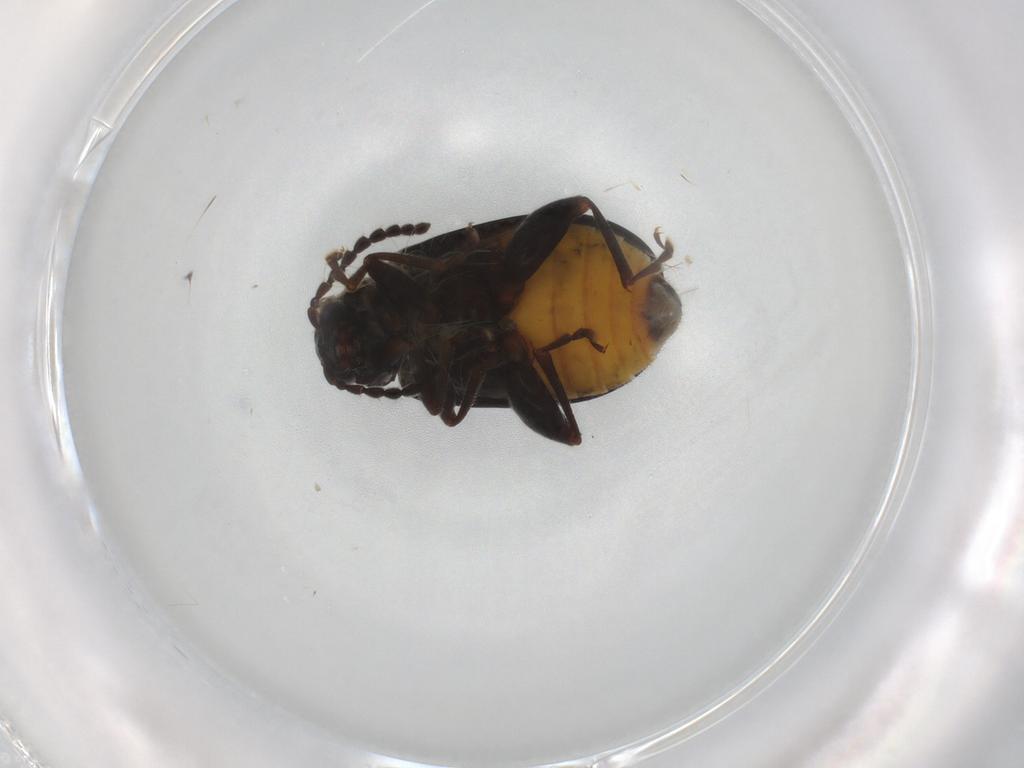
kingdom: Animalia
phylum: Arthropoda
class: Insecta
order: Coleoptera
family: Chrysomelidae
